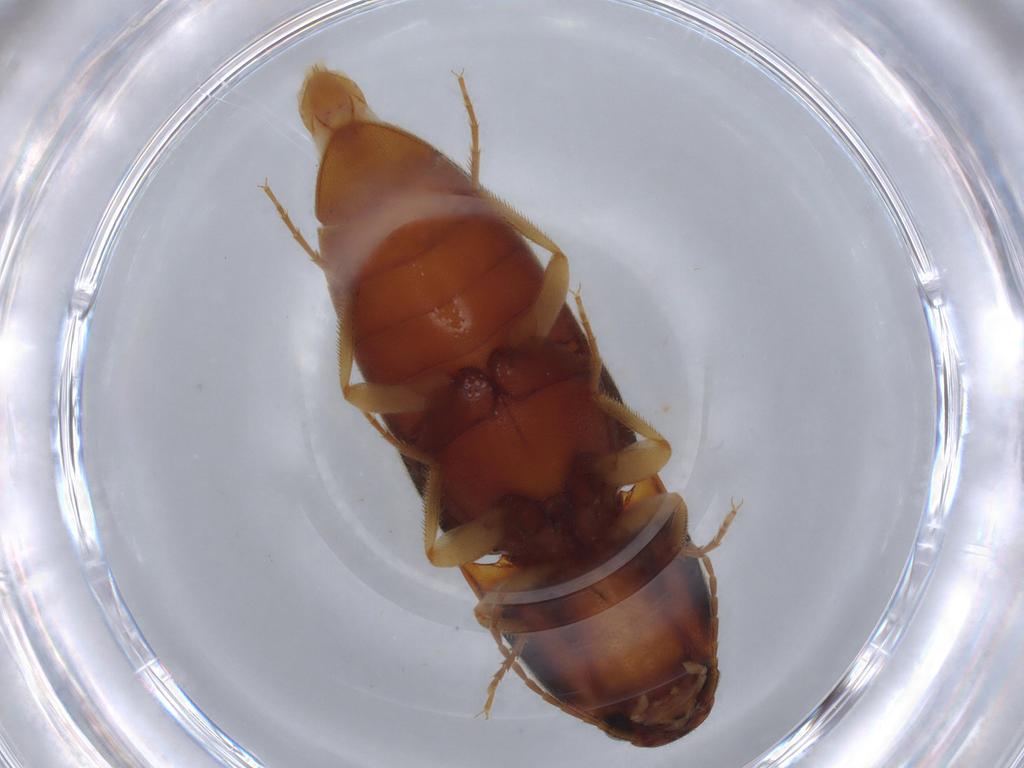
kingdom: Animalia
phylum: Arthropoda
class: Insecta
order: Coleoptera
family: Elateridae
